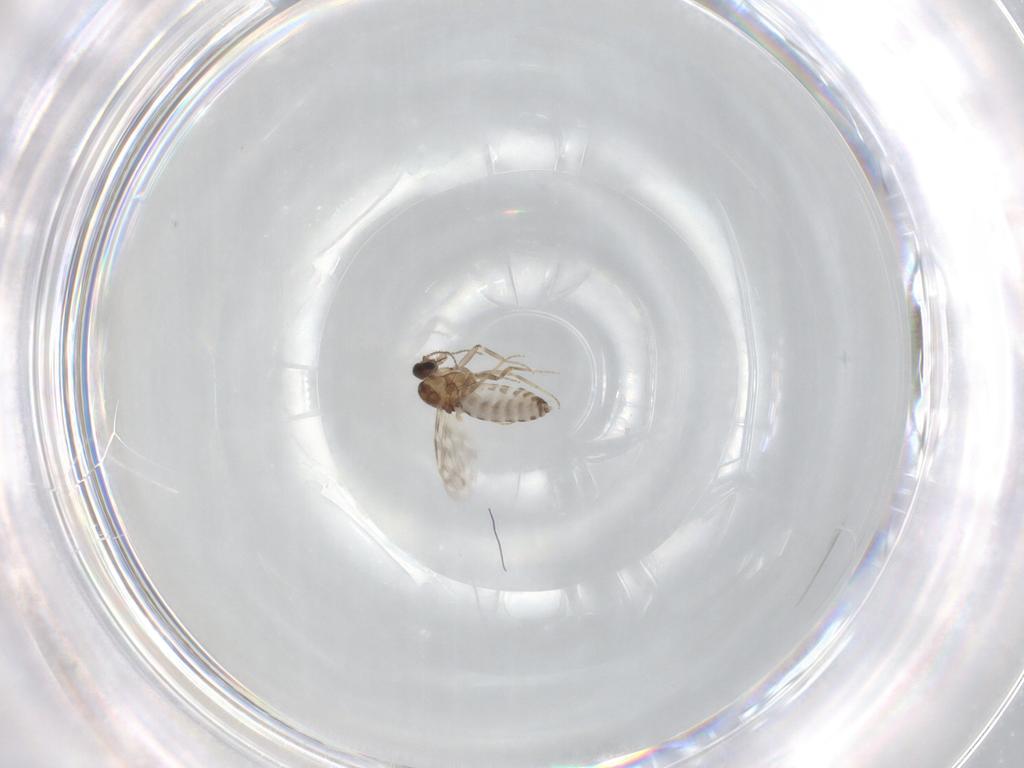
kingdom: Animalia
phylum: Arthropoda
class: Insecta
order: Diptera
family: Ceratopogonidae
